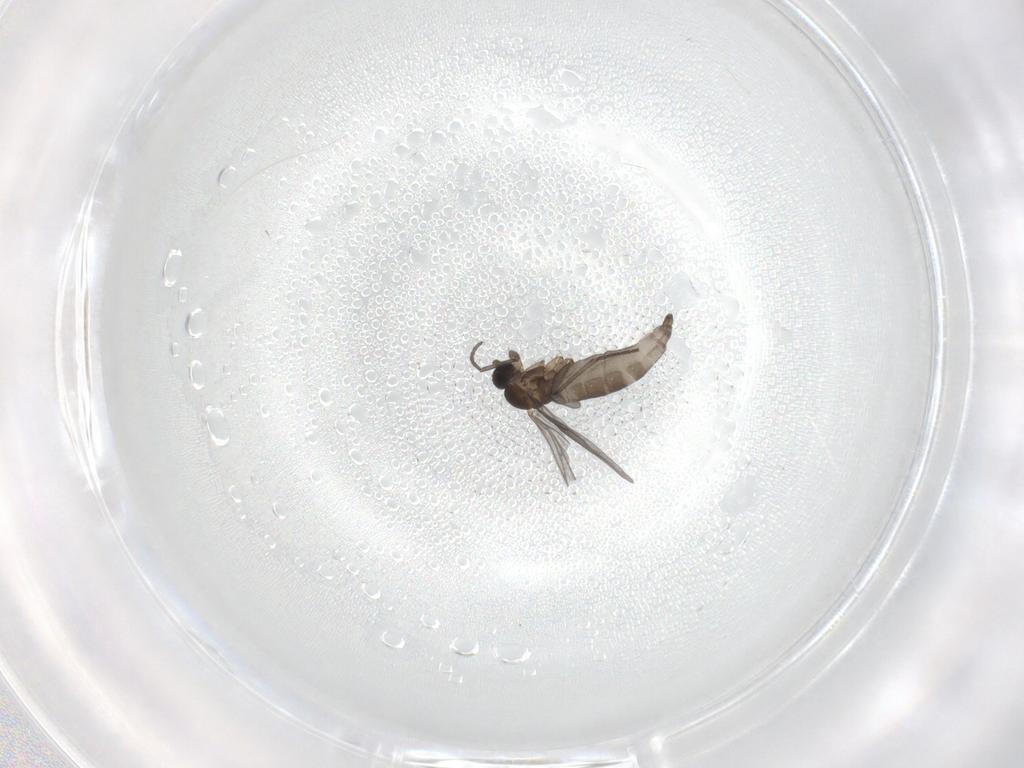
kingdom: Animalia
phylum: Arthropoda
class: Insecta
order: Diptera
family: Sciaridae
